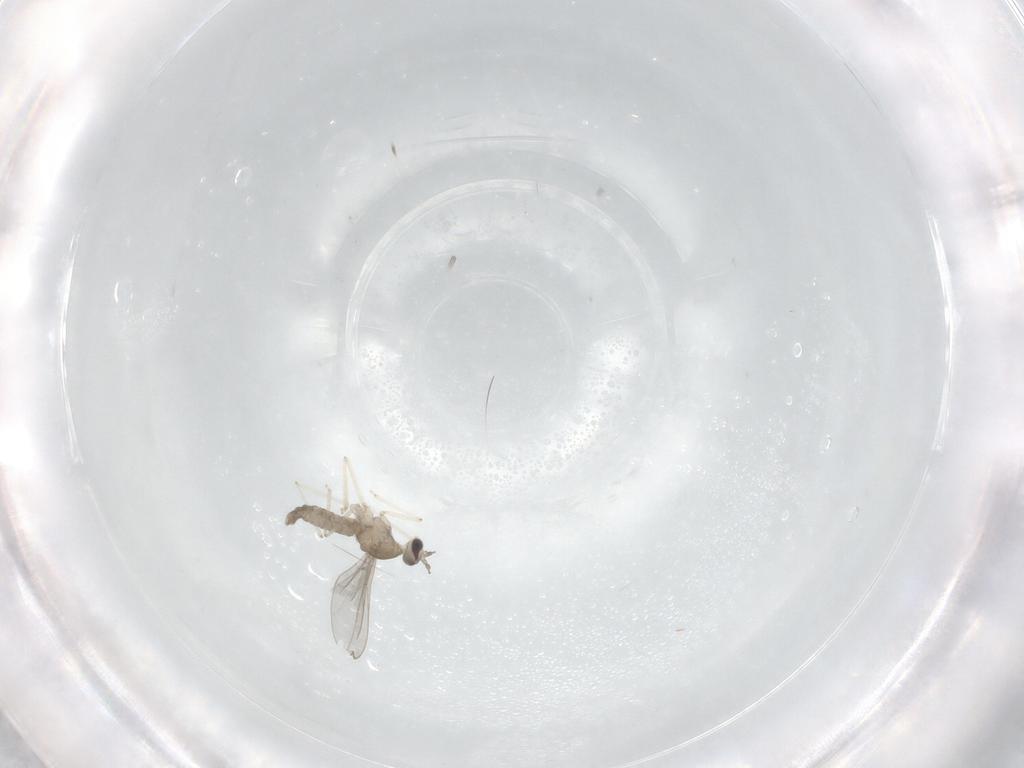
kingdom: Animalia
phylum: Arthropoda
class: Insecta
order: Diptera
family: Cecidomyiidae
